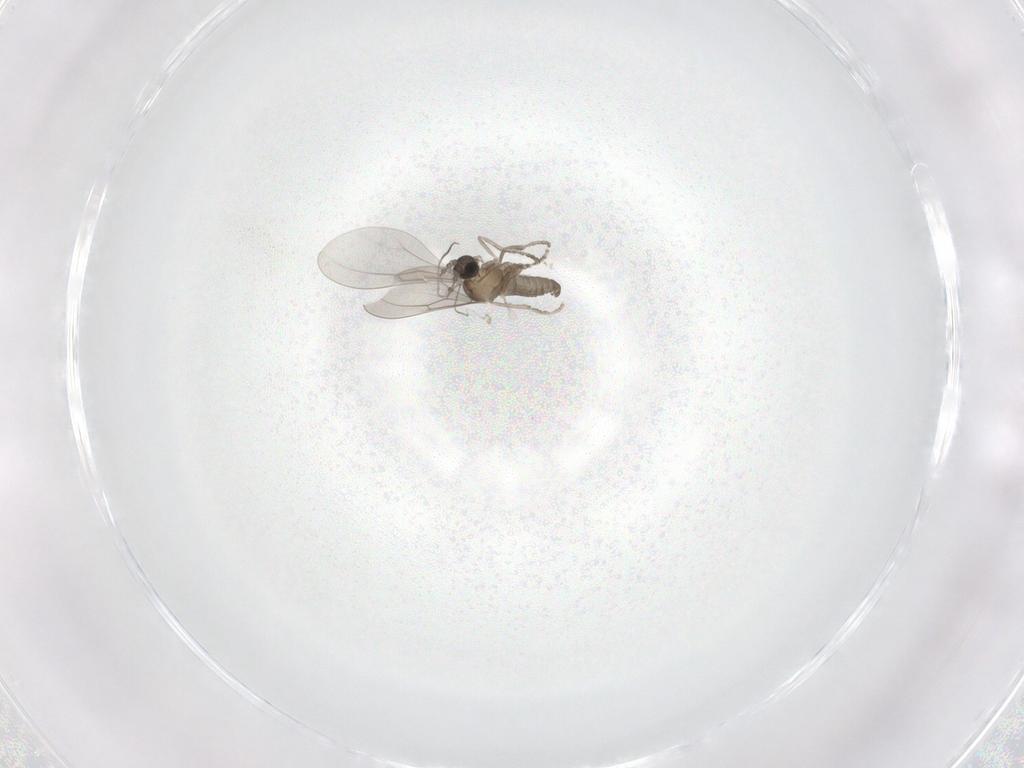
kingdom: Animalia
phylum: Arthropoda
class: Insecta
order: Diptera
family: Cecidomyiidae
